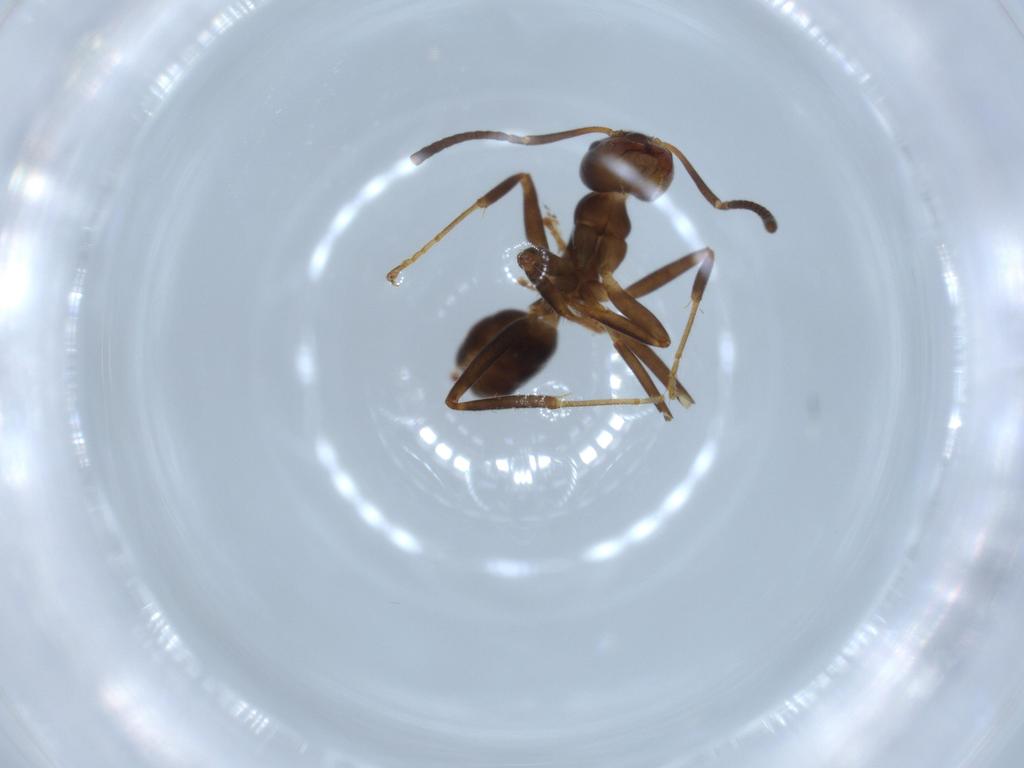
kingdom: Animalia
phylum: Arthropoda
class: Insecta
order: Hymenoptera
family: Formicidae
